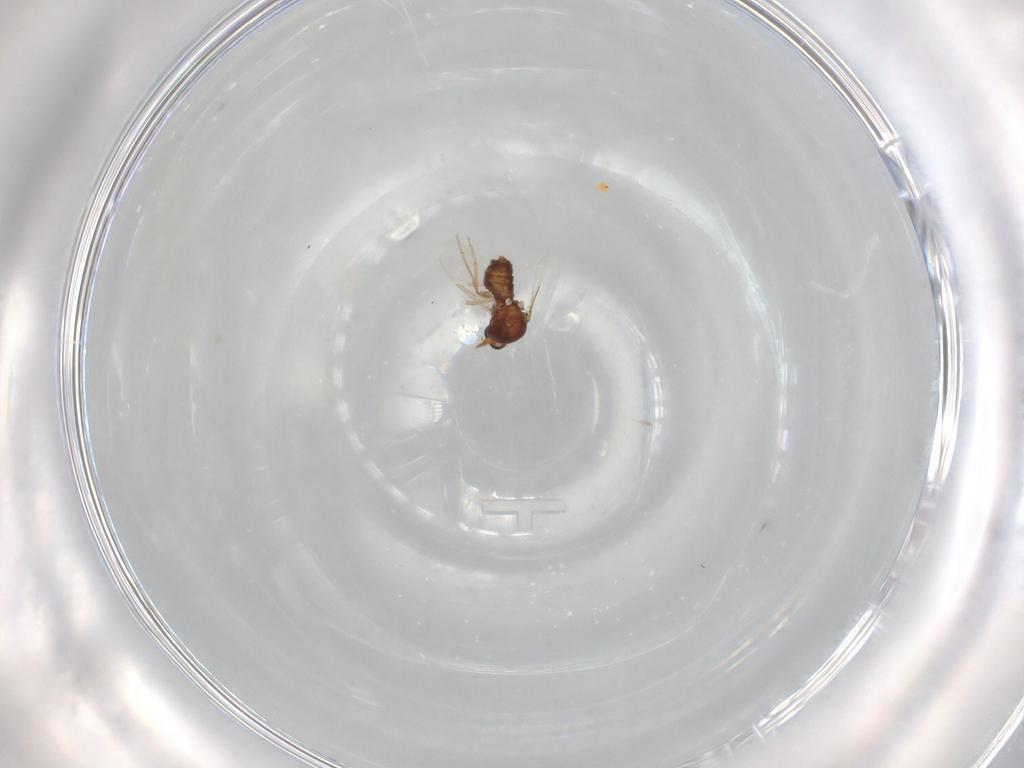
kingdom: Animalia
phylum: Arthropoda
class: Insecta
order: Diptera
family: Ceratopogonidae
